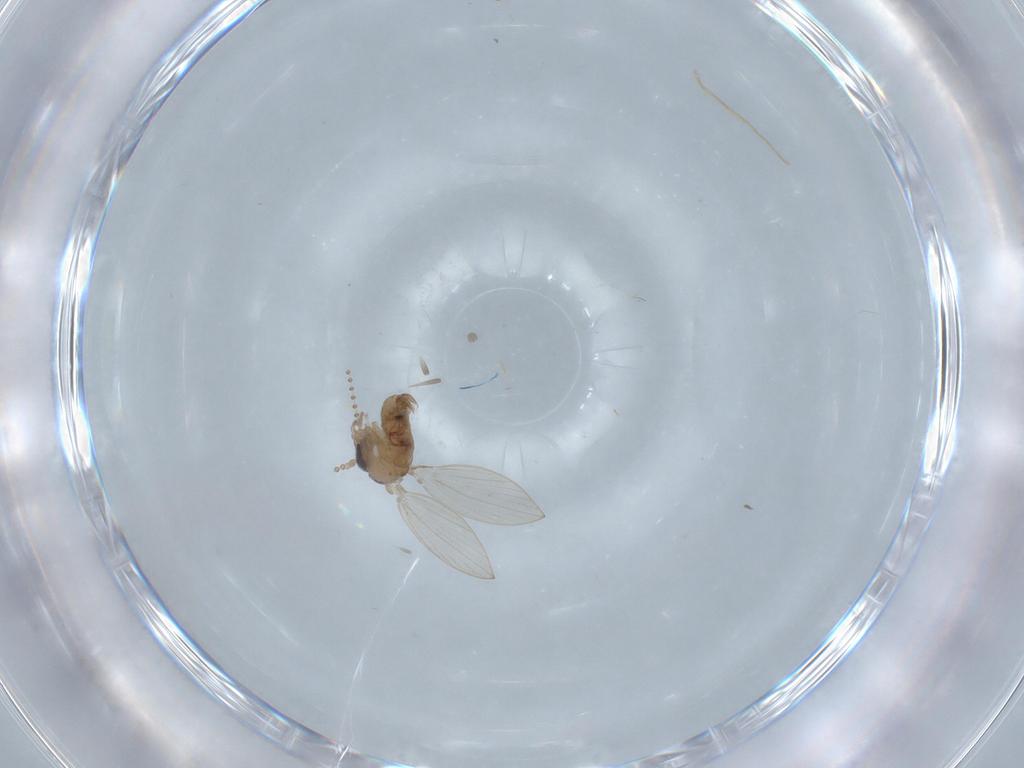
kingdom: Animalia
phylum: Arthropoda
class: Insecta
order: Diptera
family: Psychodidae
